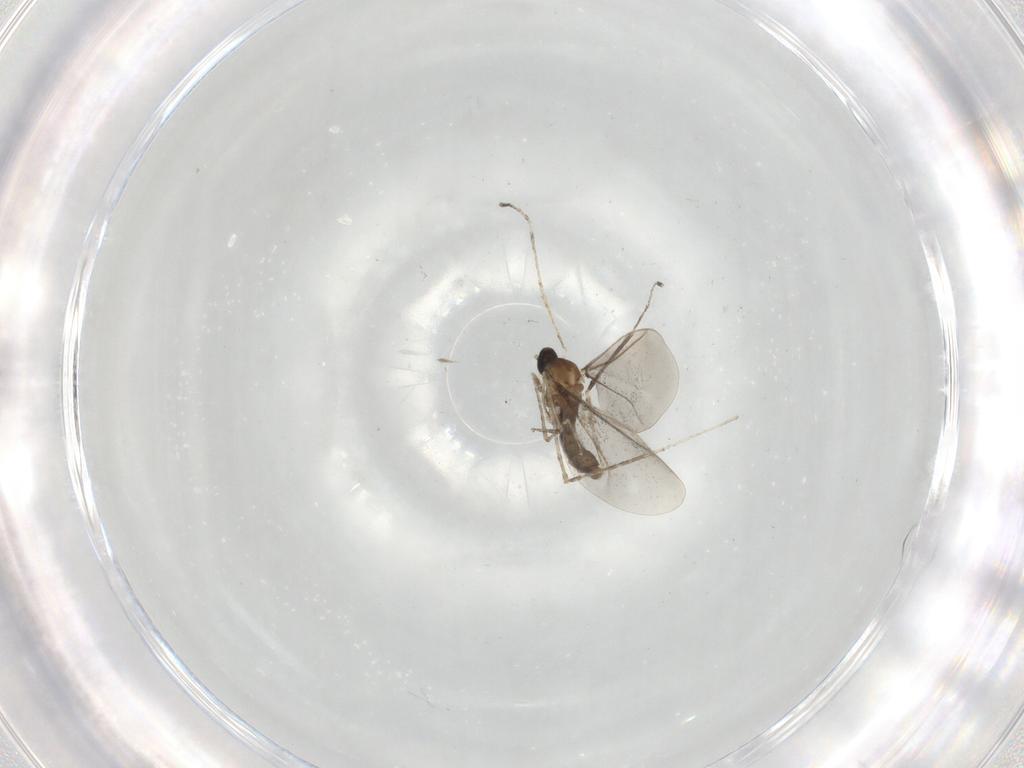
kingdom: Animalia
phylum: Arthropoda
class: Insecta
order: Diptera
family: Cecidomyiidae
